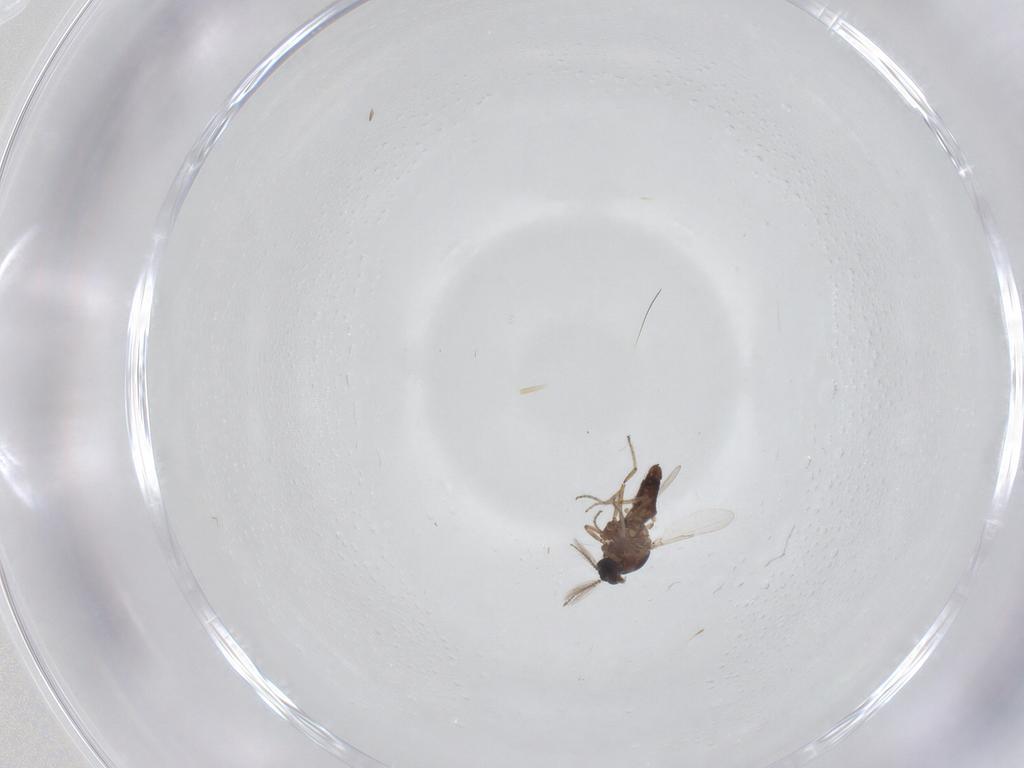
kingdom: Animalia
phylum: Arthropoda
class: Insecta
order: Diptera
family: Ceratopogonidae
